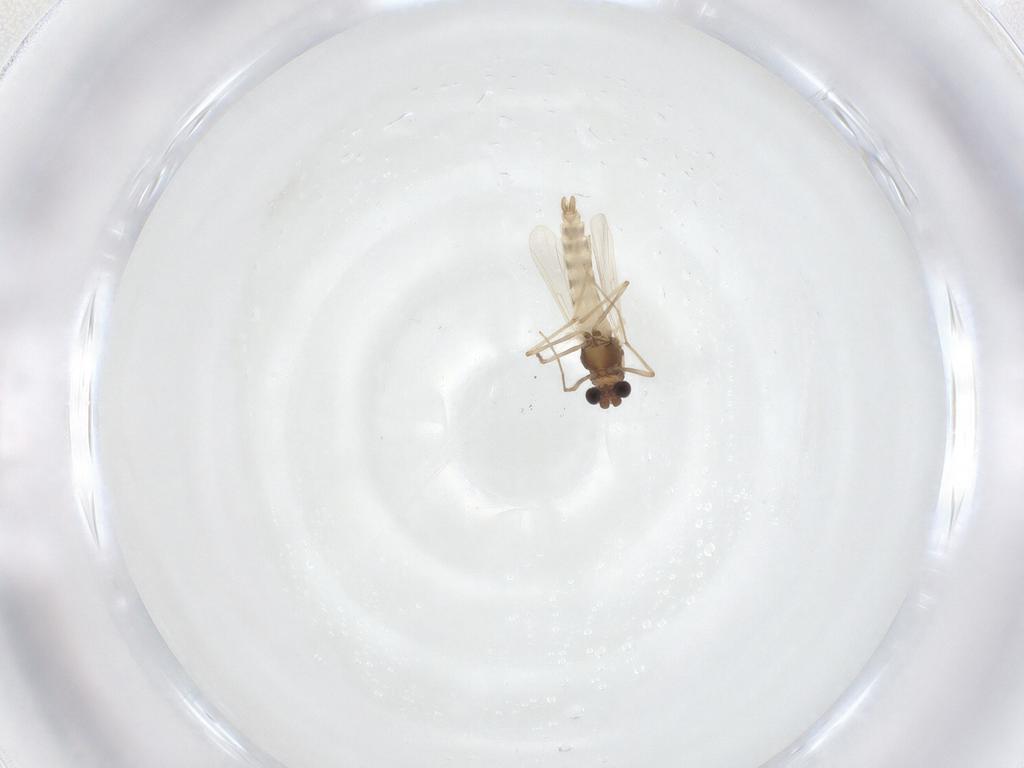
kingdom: Animalia
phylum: Arthropoda
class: Insecta
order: Diptera
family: Chironomidae
